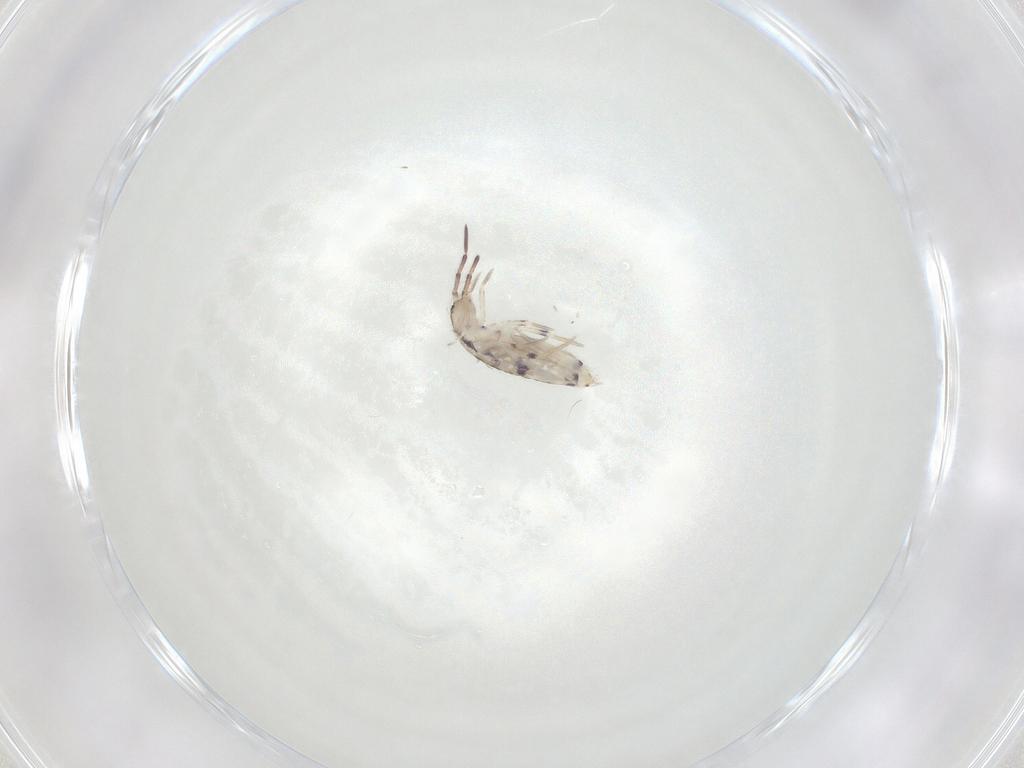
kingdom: Animalia
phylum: Arthropoda
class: Collembola
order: Entomobryomorpha
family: Entomobryidae
